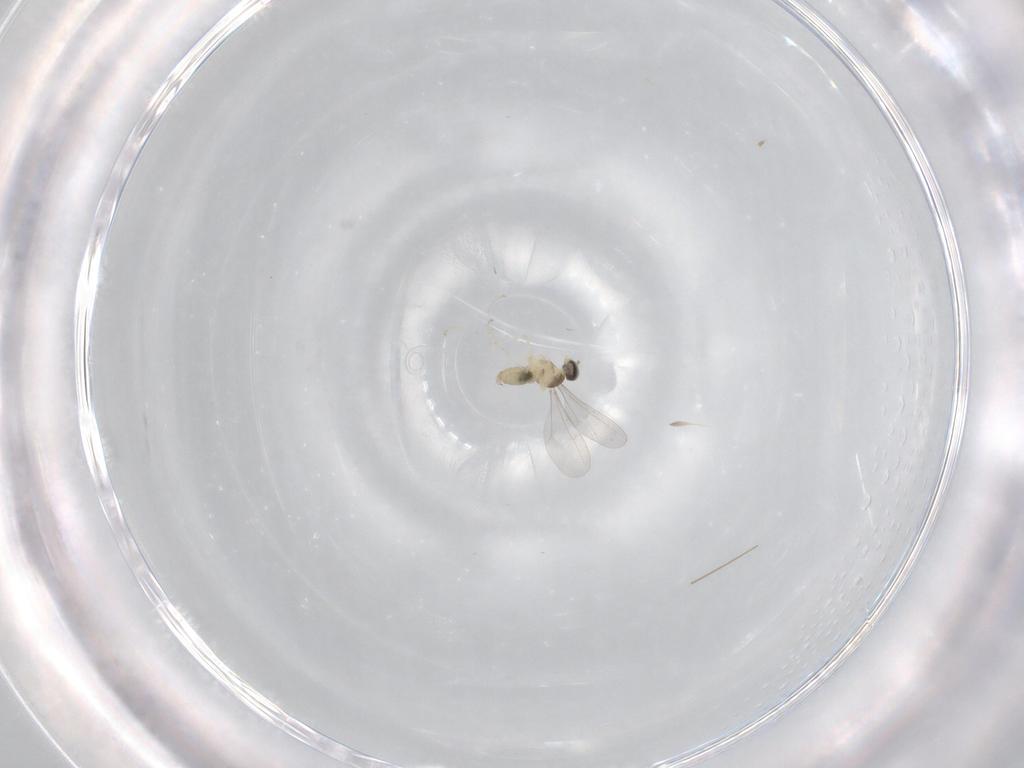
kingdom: Animalia
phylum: Arthropoda
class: Insecta
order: Diptera
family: Cecidomyiidae
